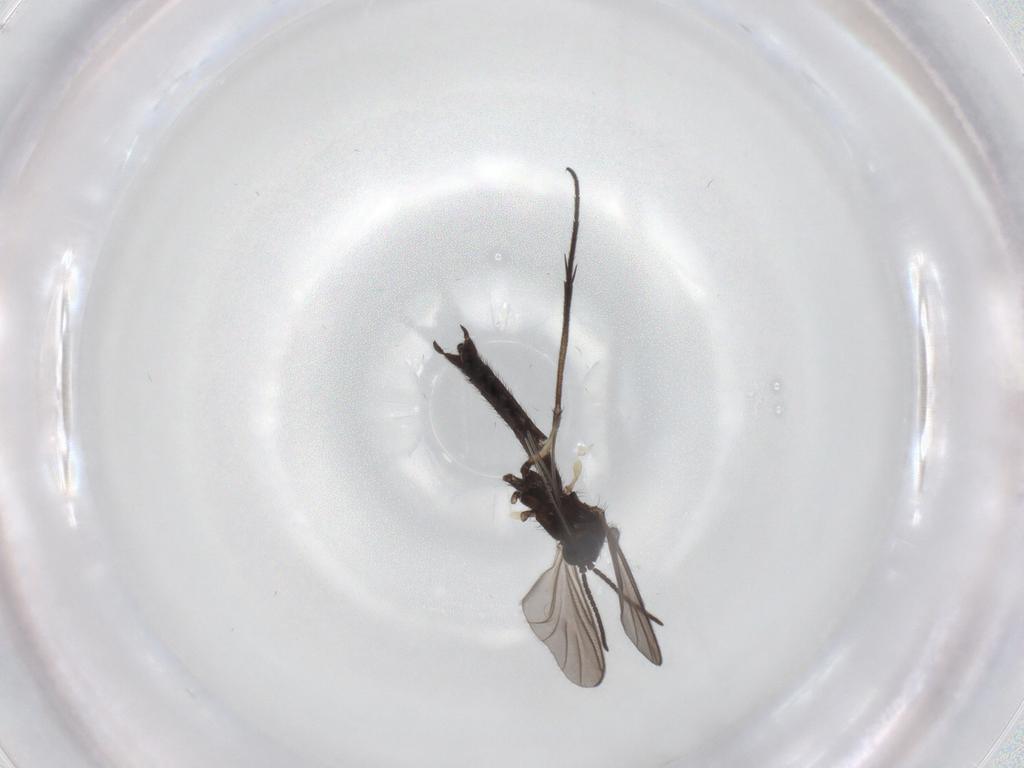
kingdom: Animalia
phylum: Arthropoda
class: Insecta
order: Diptera
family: Keroplatidae
